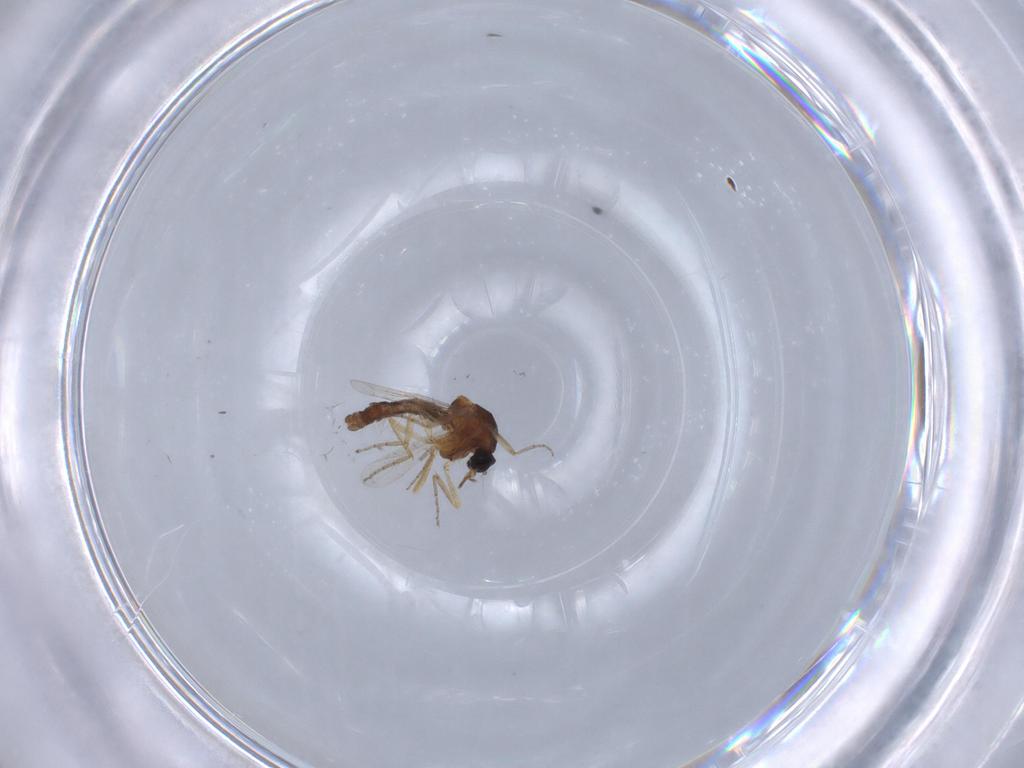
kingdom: Animalia
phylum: Arthropoda
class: Insecta
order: Diptera
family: Ceratopogonidae
